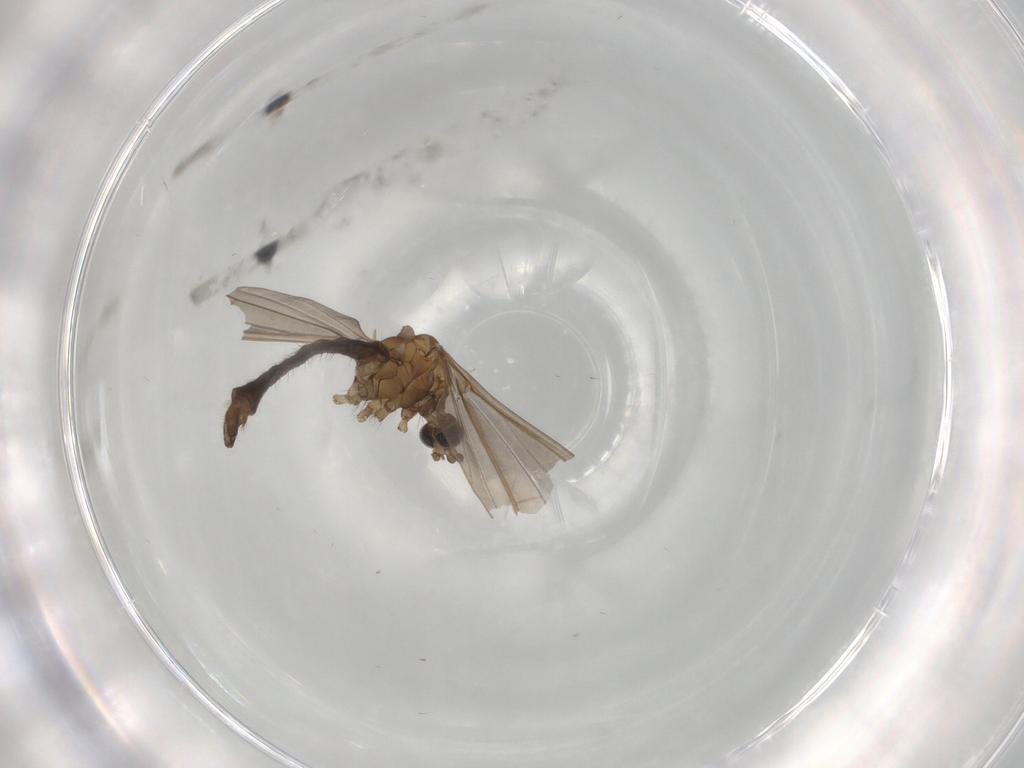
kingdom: Animalia
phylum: Arthropoda
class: Insecta
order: Diptera
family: Limoniidae
